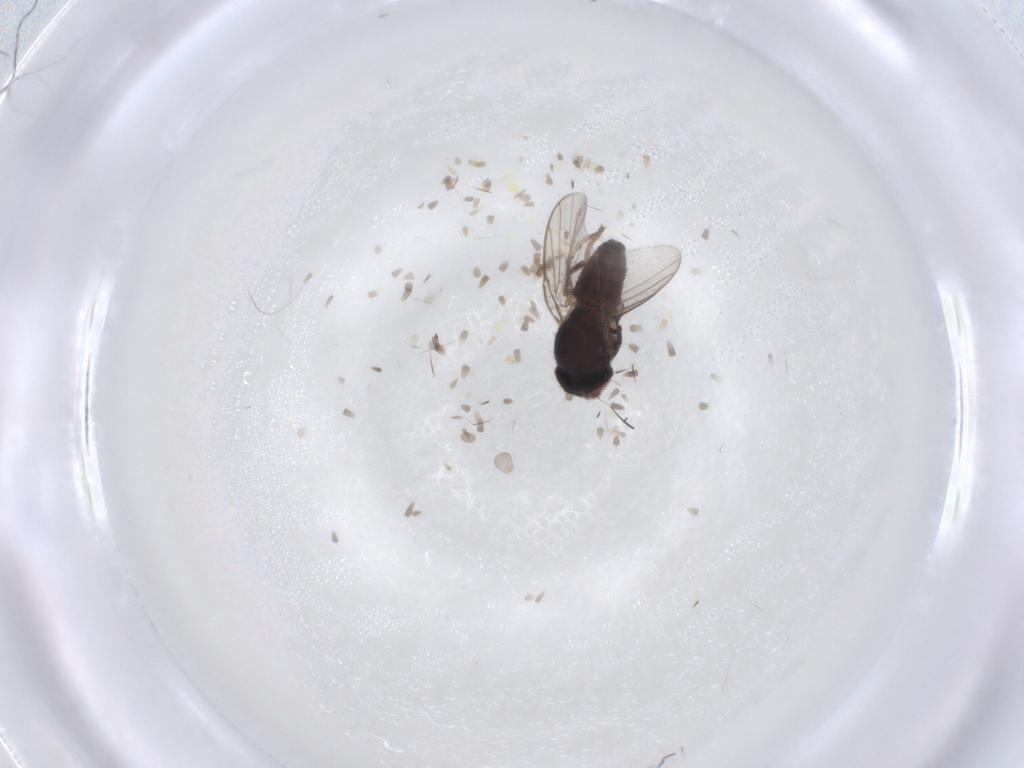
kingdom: Animalia
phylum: Arthropoda
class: Insecta
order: Diptera
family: Chloropidae
